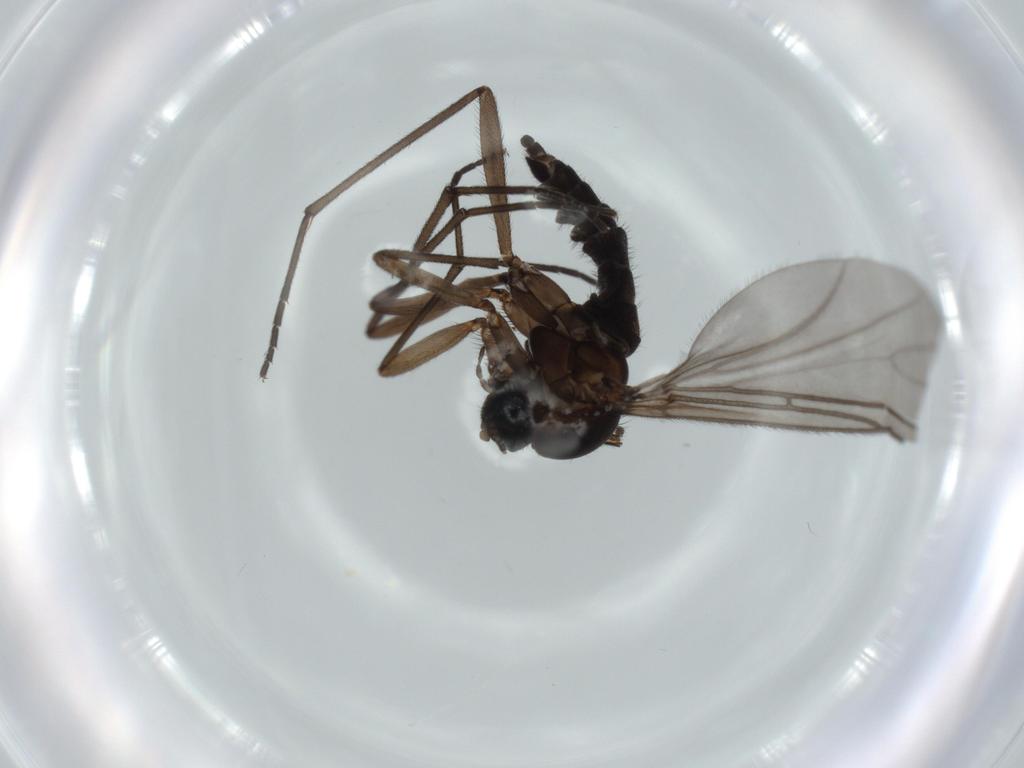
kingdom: Animalia
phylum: Arthropoda
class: Insecta
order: Diptera
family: Sciaridae
